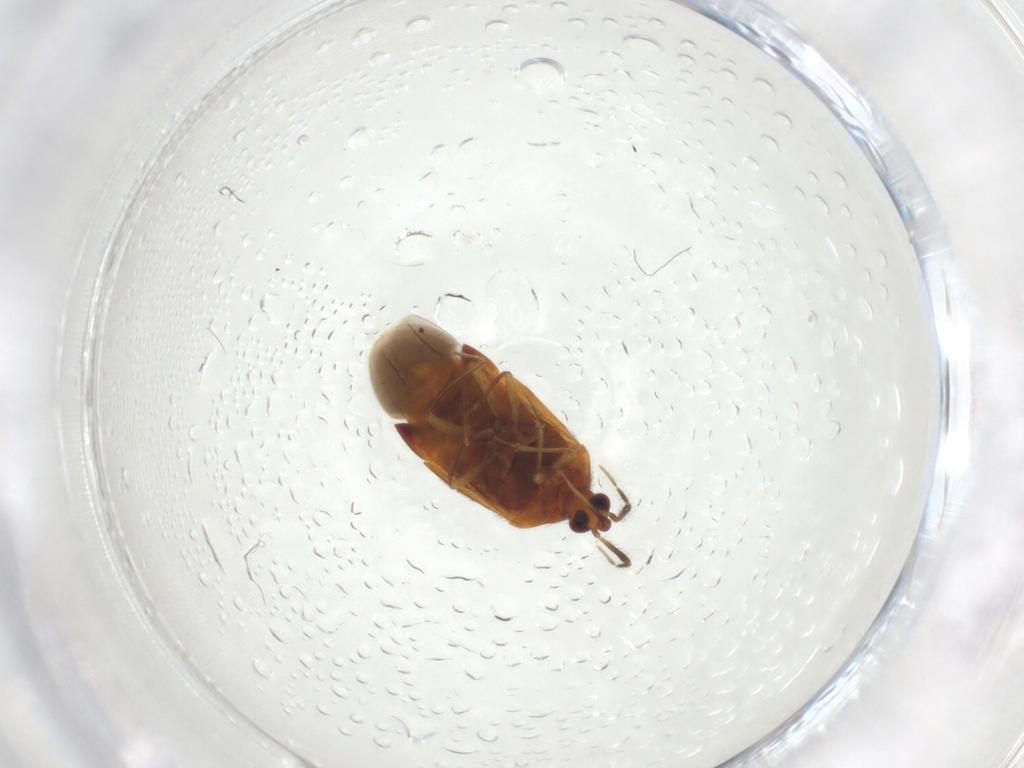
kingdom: Animalia
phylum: Arthropoda
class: Insecta
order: Hemiptera
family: Anthocoridae
